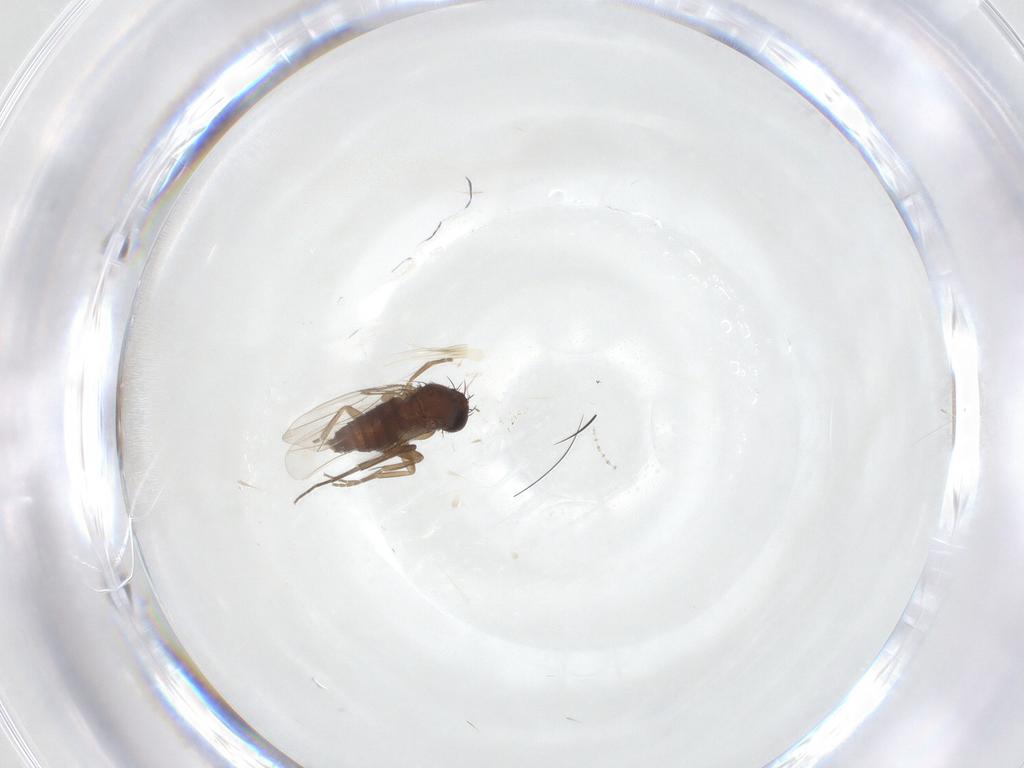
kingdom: Animalia
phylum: Arthropoda
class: Insecta
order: Diptera
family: Phoridae
